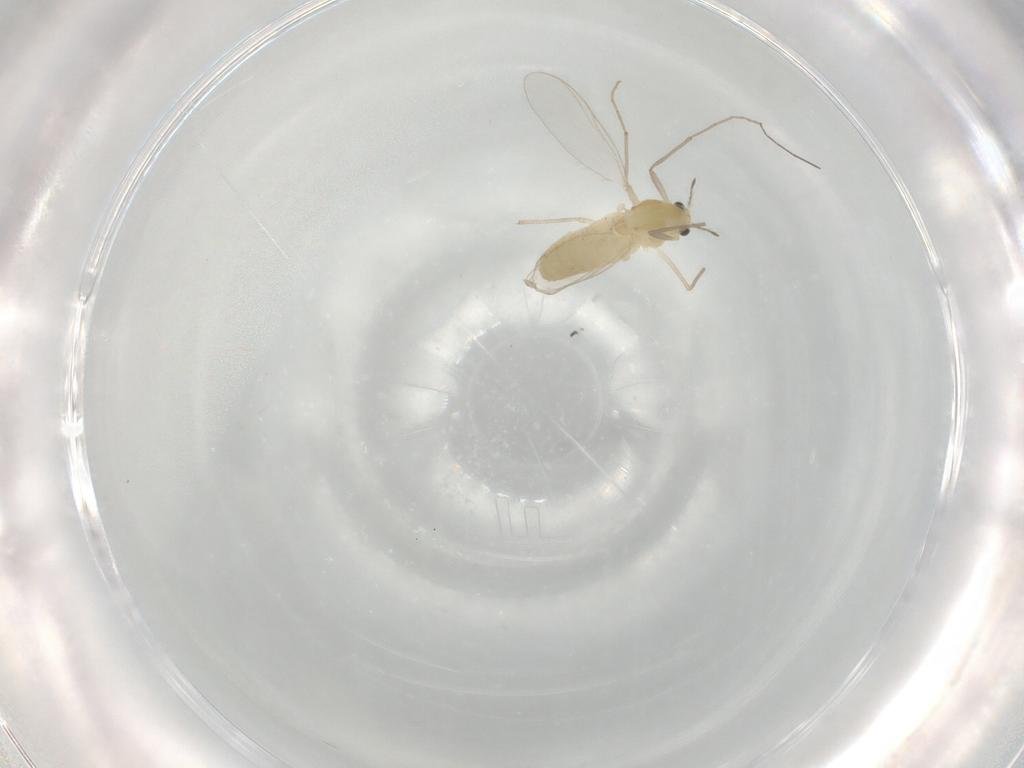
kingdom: Animalia
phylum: Arthropoda
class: Insecta
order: Diptera
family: Chironomidae
